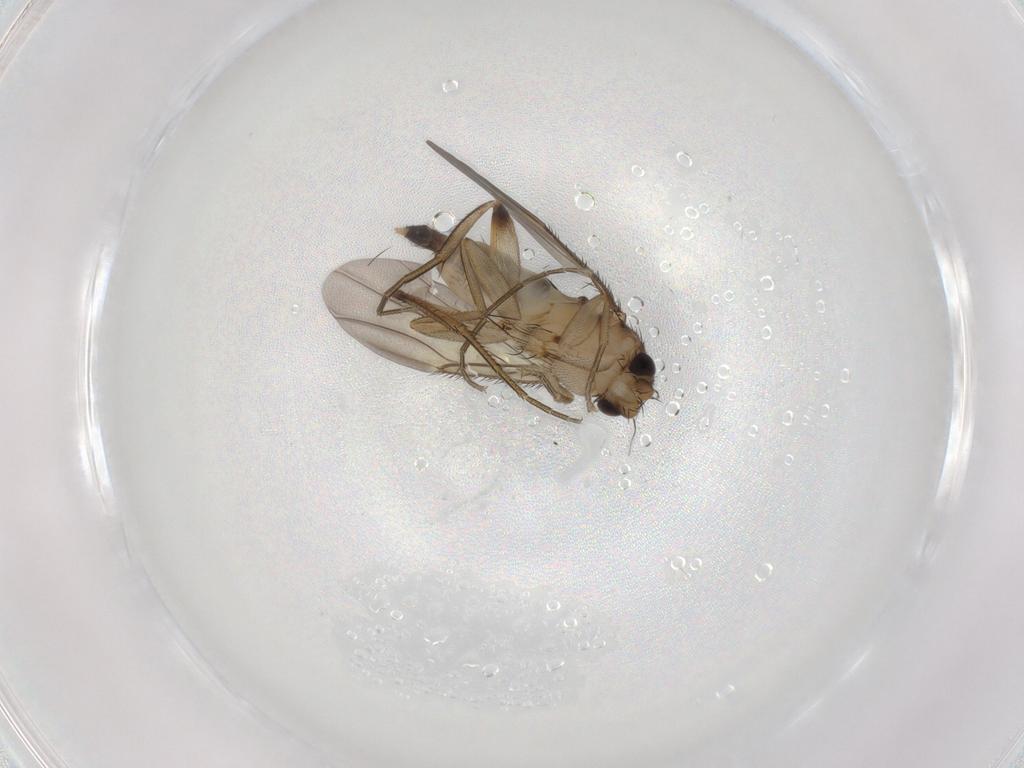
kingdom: Animalia
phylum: Arthropoda
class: Insecta
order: Diptera
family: Phoridae
